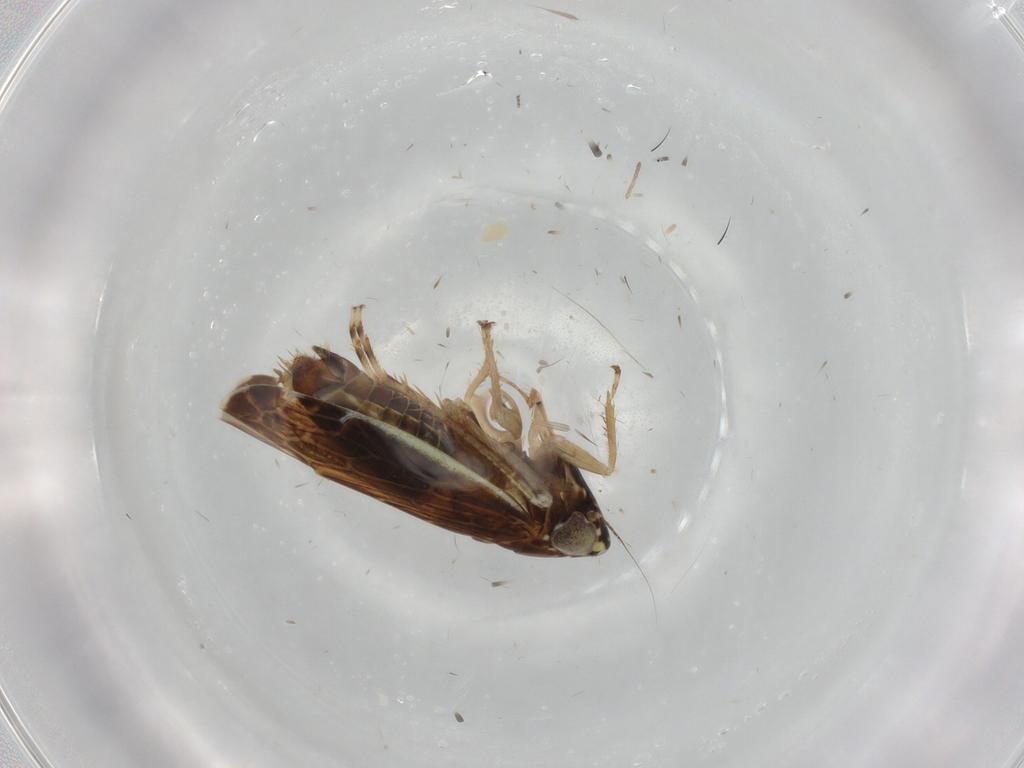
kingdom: Animalia
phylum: Arthropoda
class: Insecta
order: Hemiptera
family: Cicadellidae
